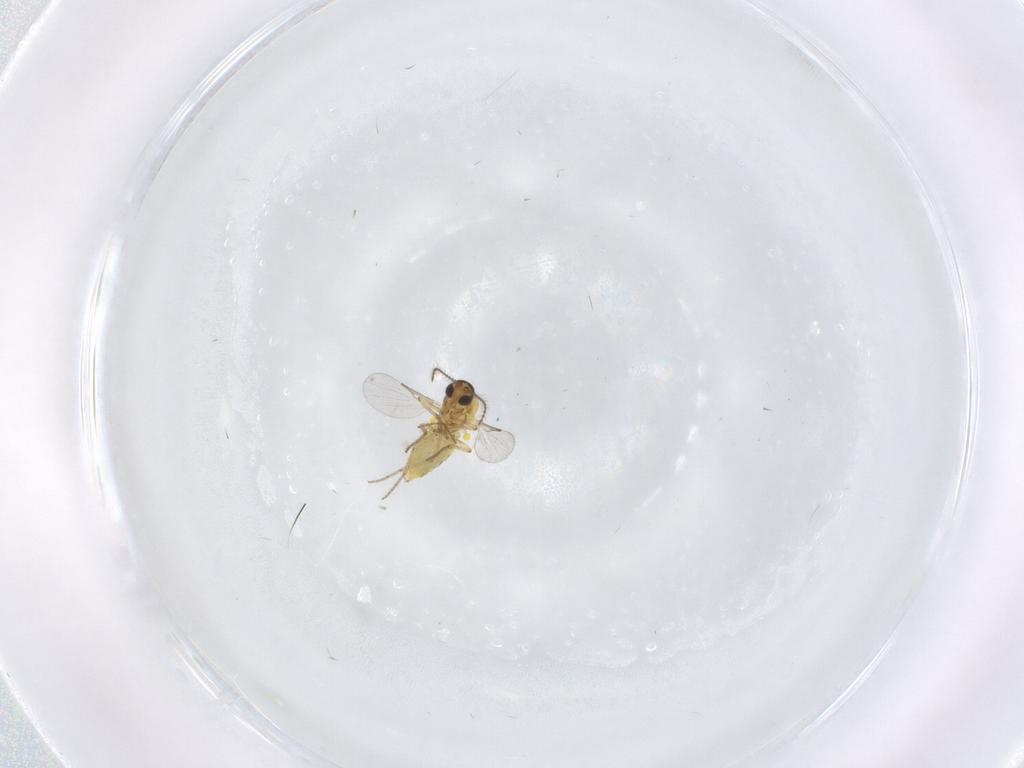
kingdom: Animalia
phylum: Arthropoda
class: Insecta
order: Diptera
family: Ceratopogonidae
